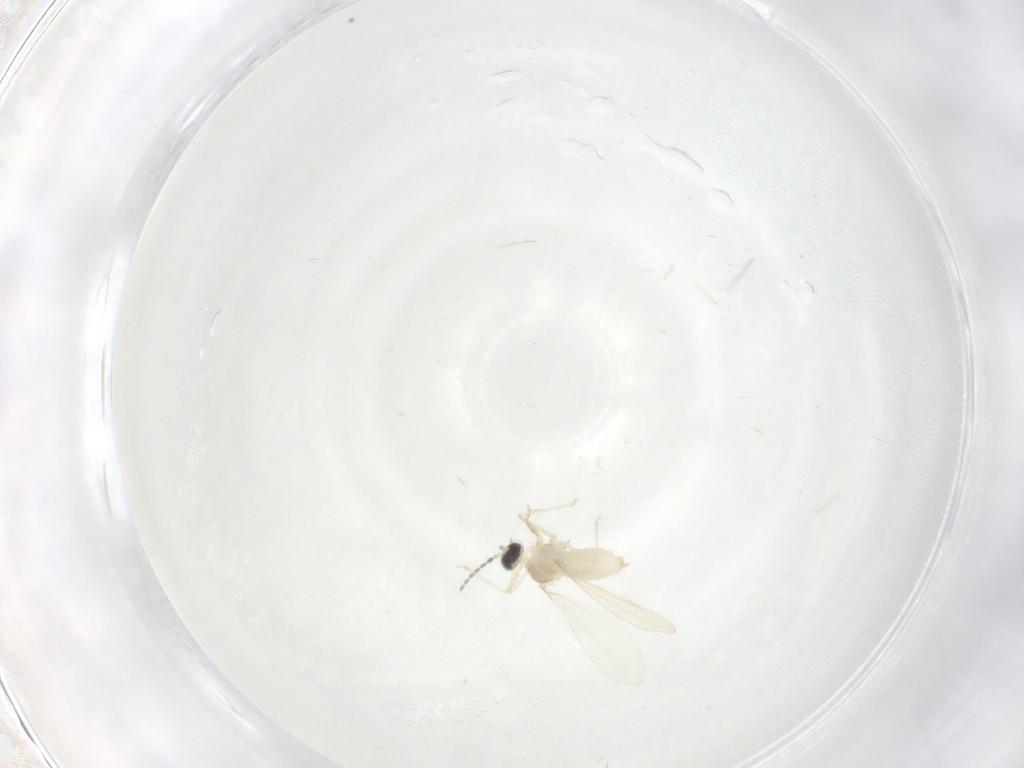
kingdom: Animalia
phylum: Arthropoda
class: Insecta
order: Diptera
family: Cecidomyiidae
